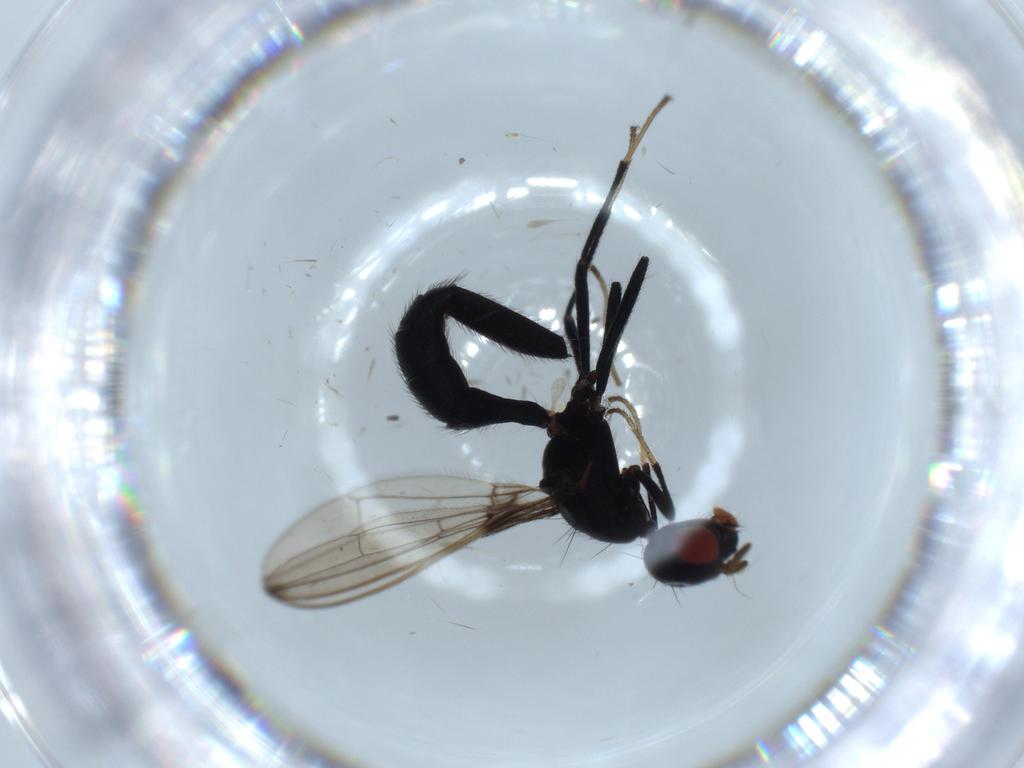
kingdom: Animalia
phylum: Arthropoda
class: Insecta
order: Diptera
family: Richardiidae
